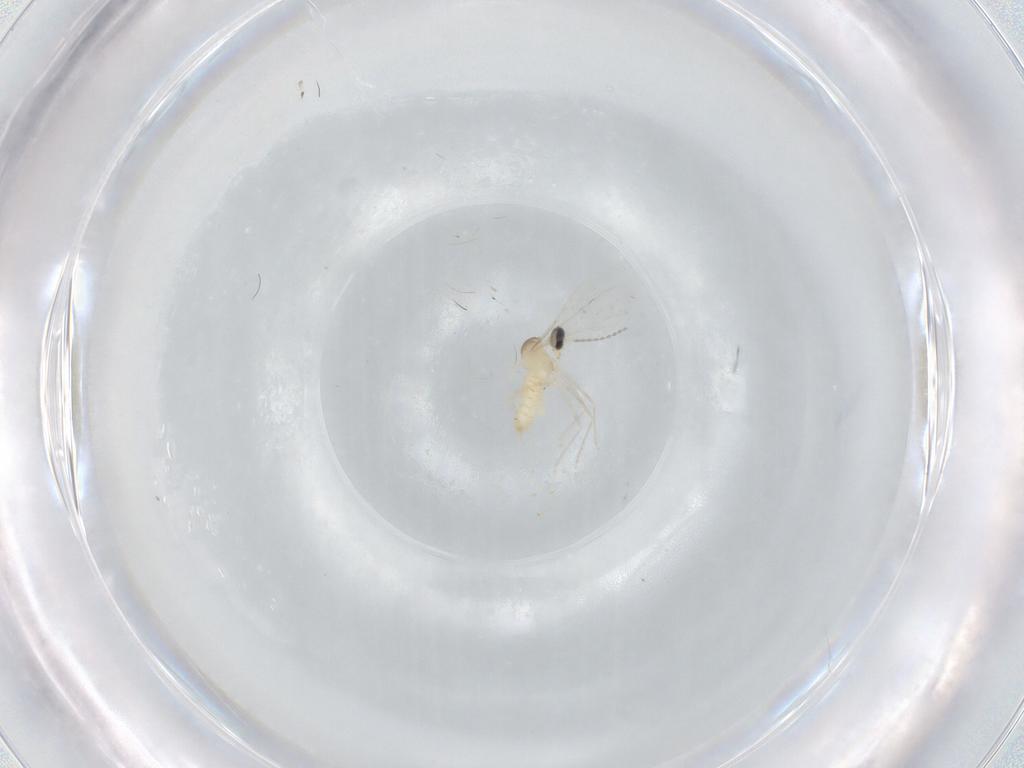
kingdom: Animalia
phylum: Arthropoda
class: Insecta
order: Diptera
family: Cecidomyiidae
